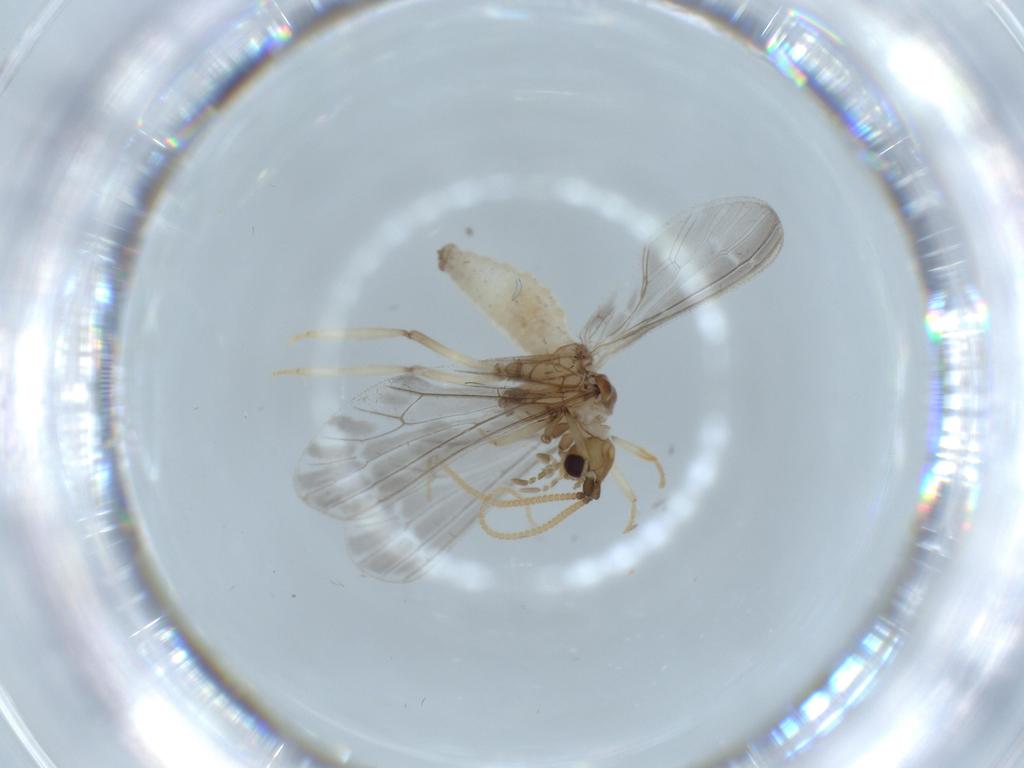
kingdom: Animalia
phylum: Arthropoda
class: Insecta
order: Neuroptera
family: Coniopterygidae
